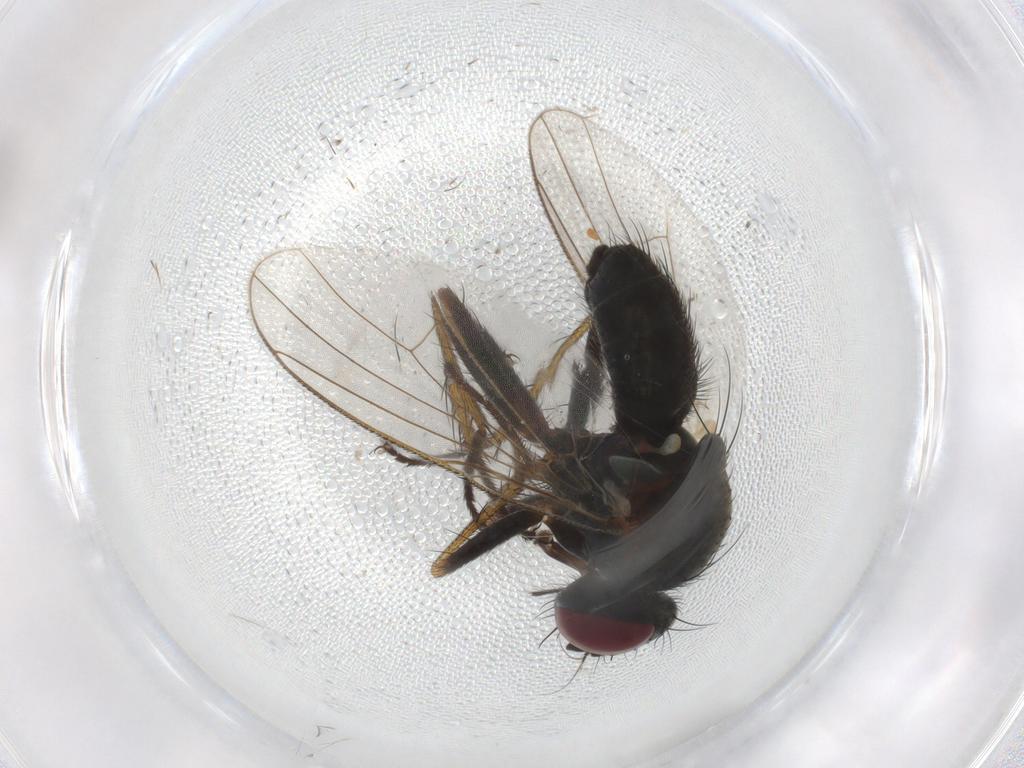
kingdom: Animalia
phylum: Arthropoda
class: Insecta
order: Diptera
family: Muscidae
